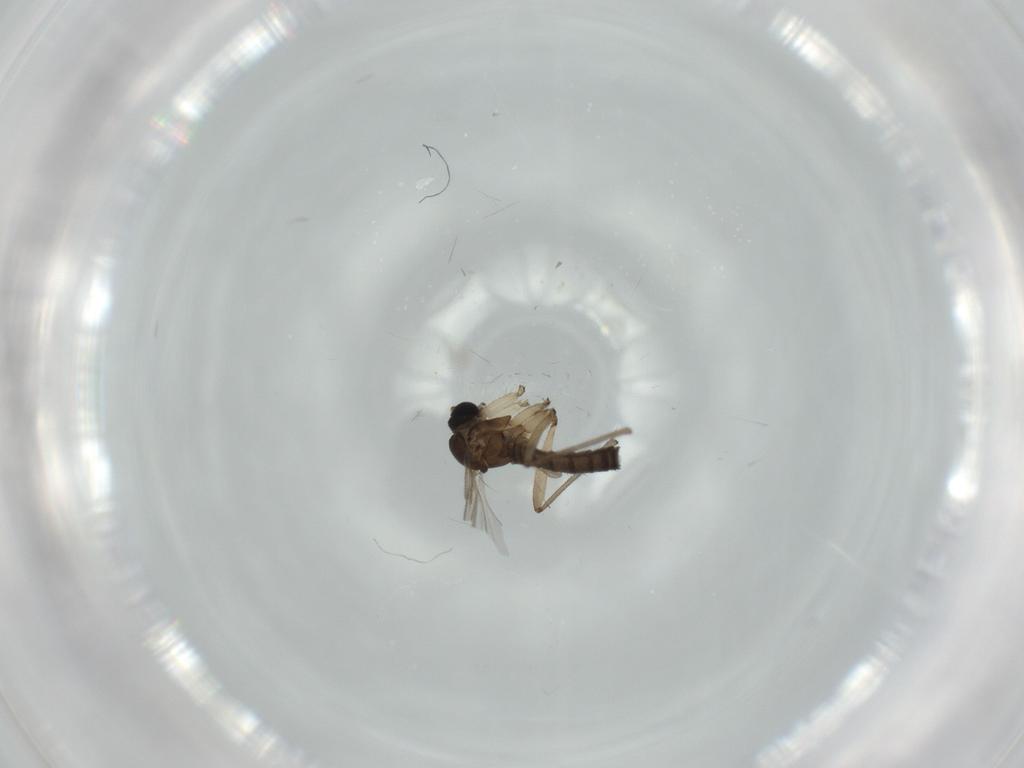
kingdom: Animalia
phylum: Arthropoda
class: Insecta
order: Diptera
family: Sciaridae
